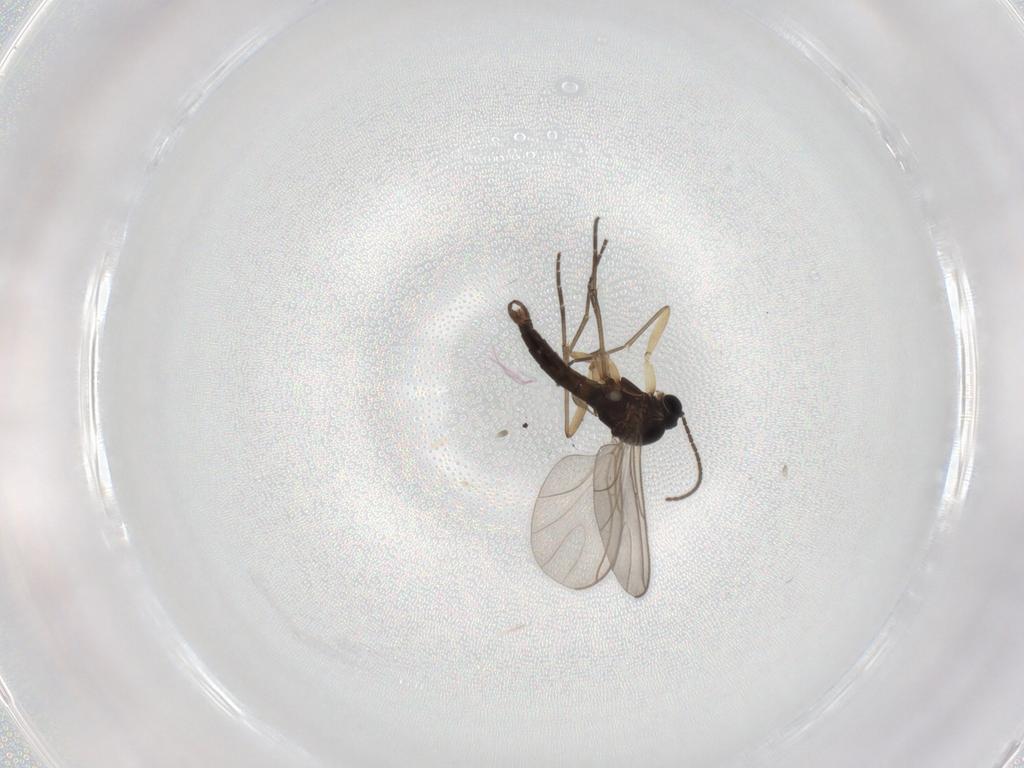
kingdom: Animalia
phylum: Arthropoda
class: Insecta
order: Diptera
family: Sciaridae
